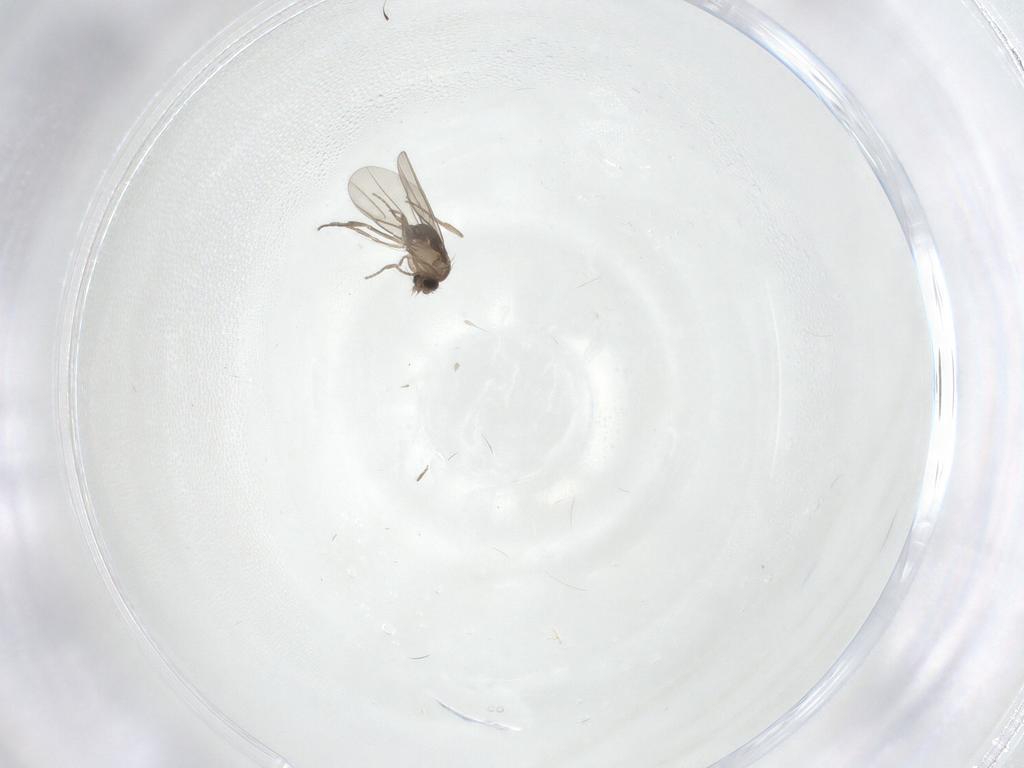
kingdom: Animalia
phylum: Arthropoda
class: Insecta
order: Diptera
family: Phoridae
